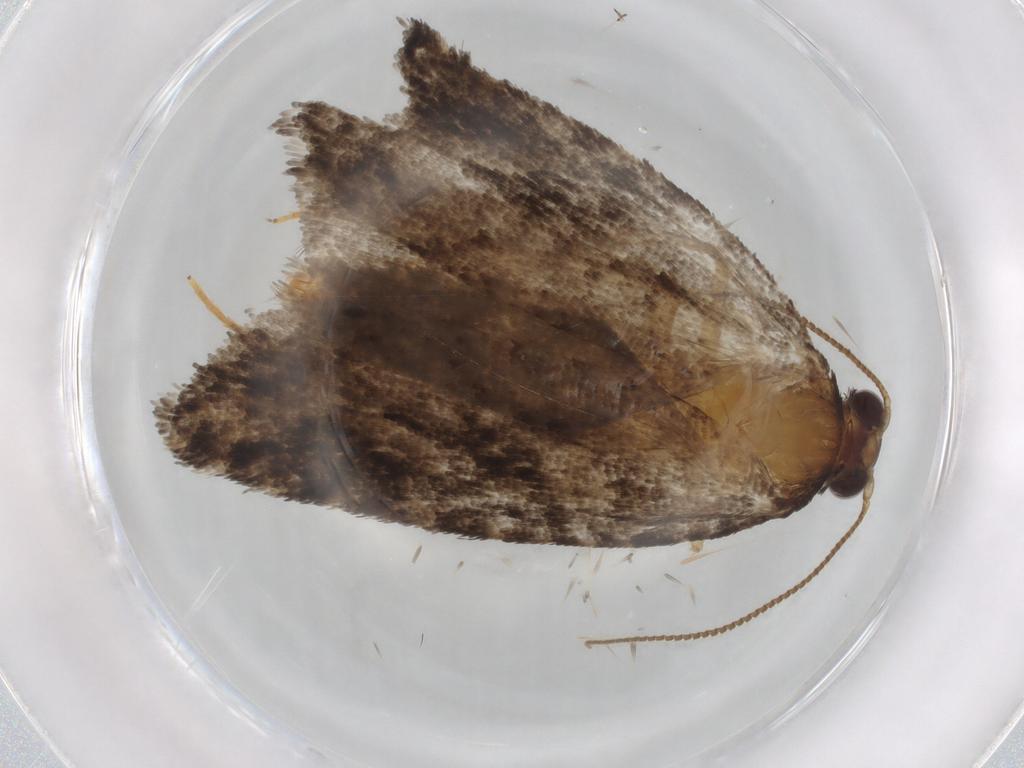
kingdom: Animalia
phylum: Arthropoda
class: Insecta
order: Lepidoptera
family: Tortricidae
